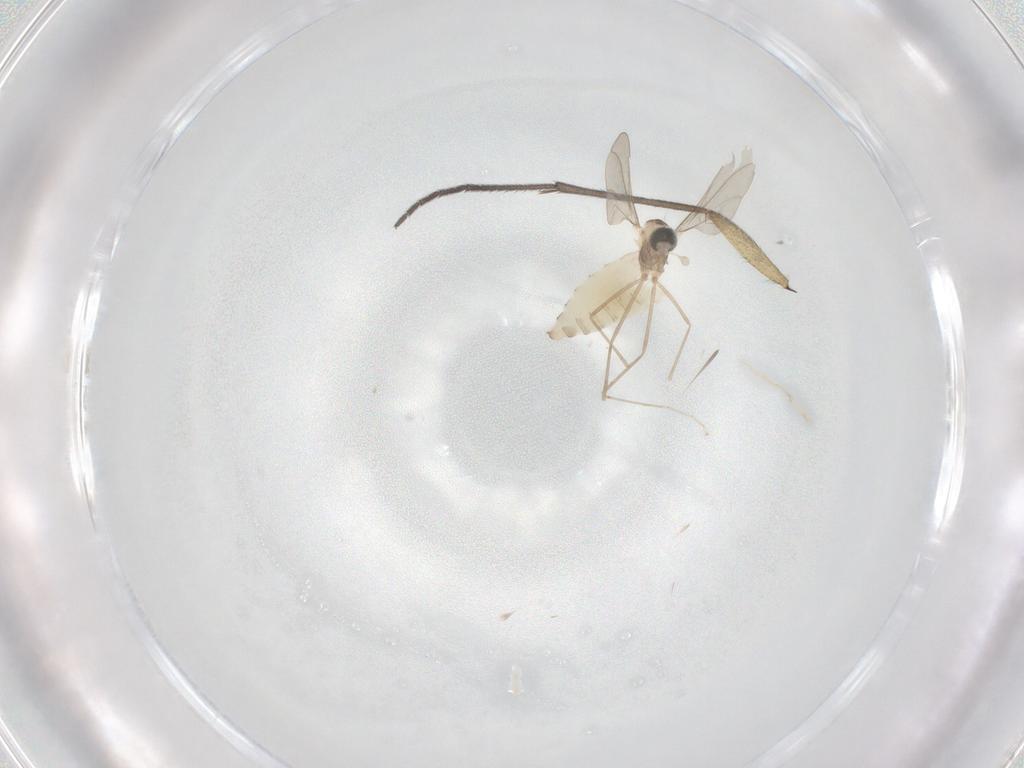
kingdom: Animalia
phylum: Arthropoda
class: Insecta
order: Diptera
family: Cecidomyiidae
